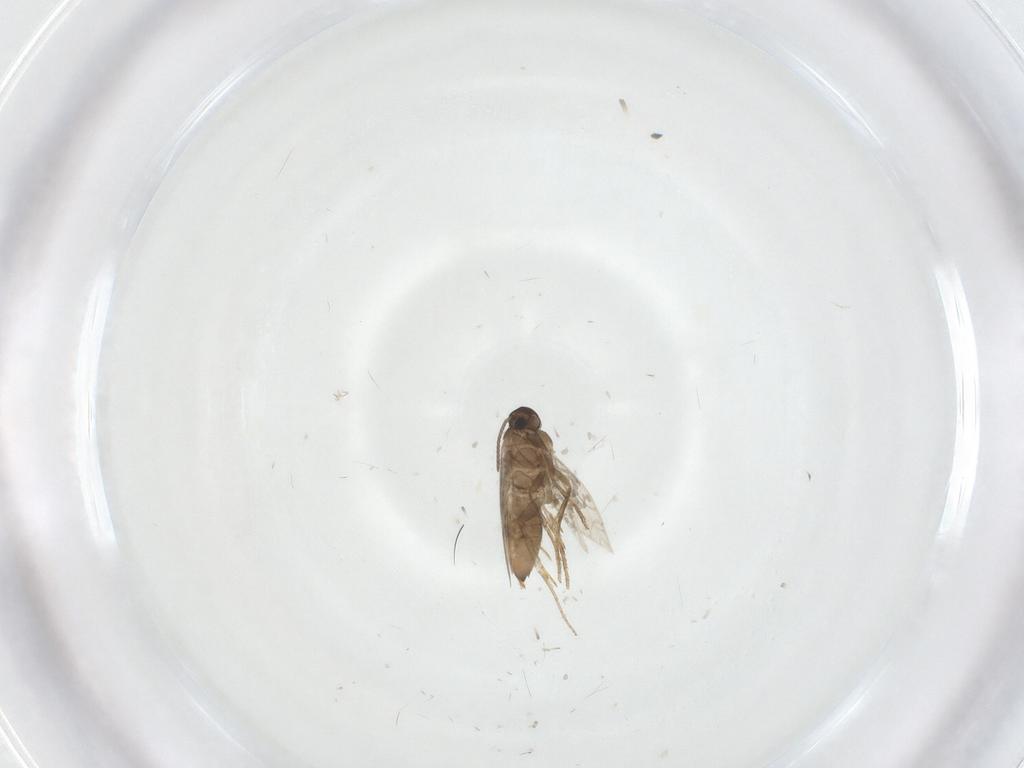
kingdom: Animalia
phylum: Arthropoda
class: Insecta
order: Lepidoptera
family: Heliozelidae
